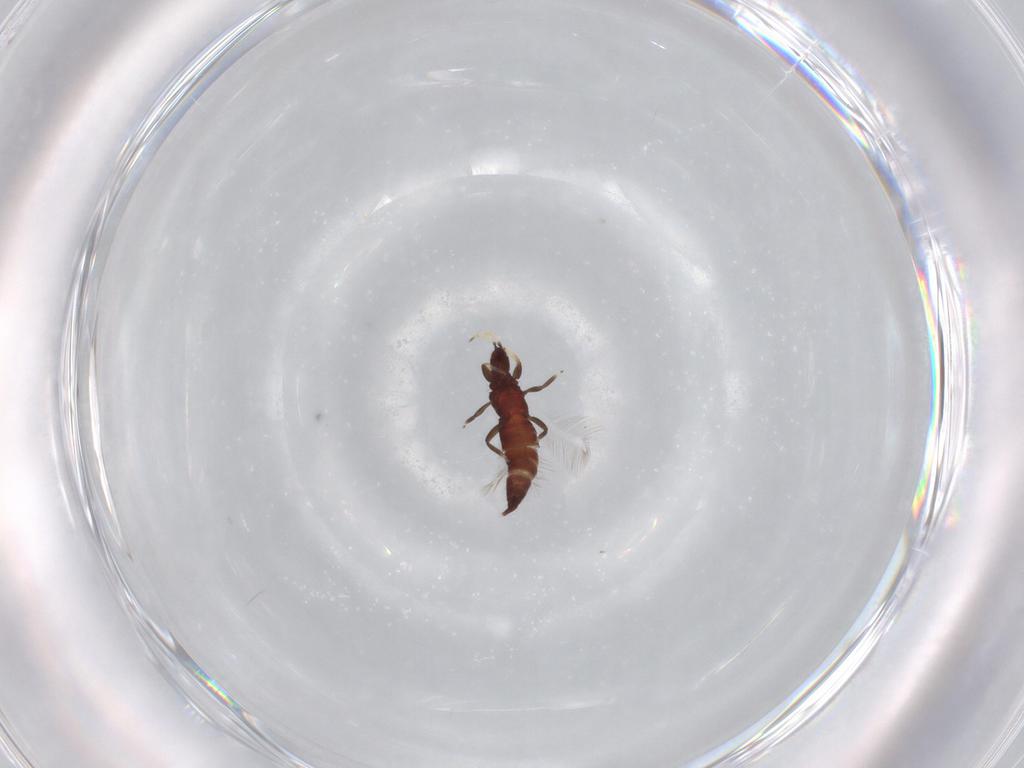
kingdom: Animalia
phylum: Arthropoda
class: Insecta
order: Thysanoptera
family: Phlaeothripidae
